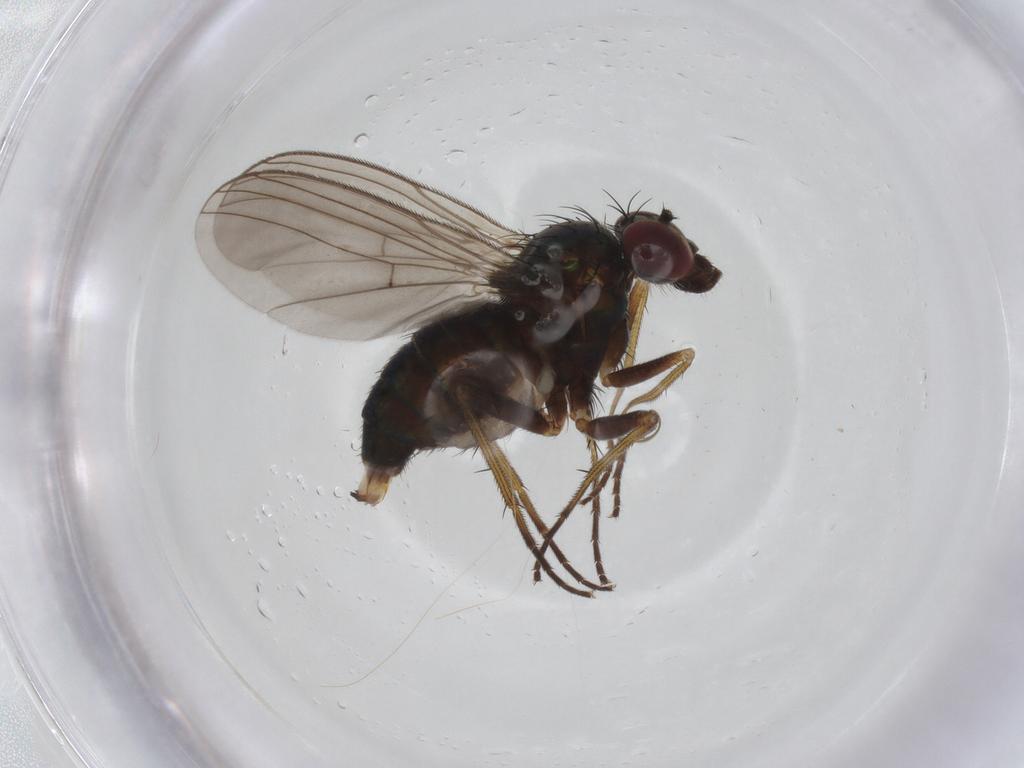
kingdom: Animalia
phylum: Arthropoda
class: Insecta
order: Diptera
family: Dolichopodidae
